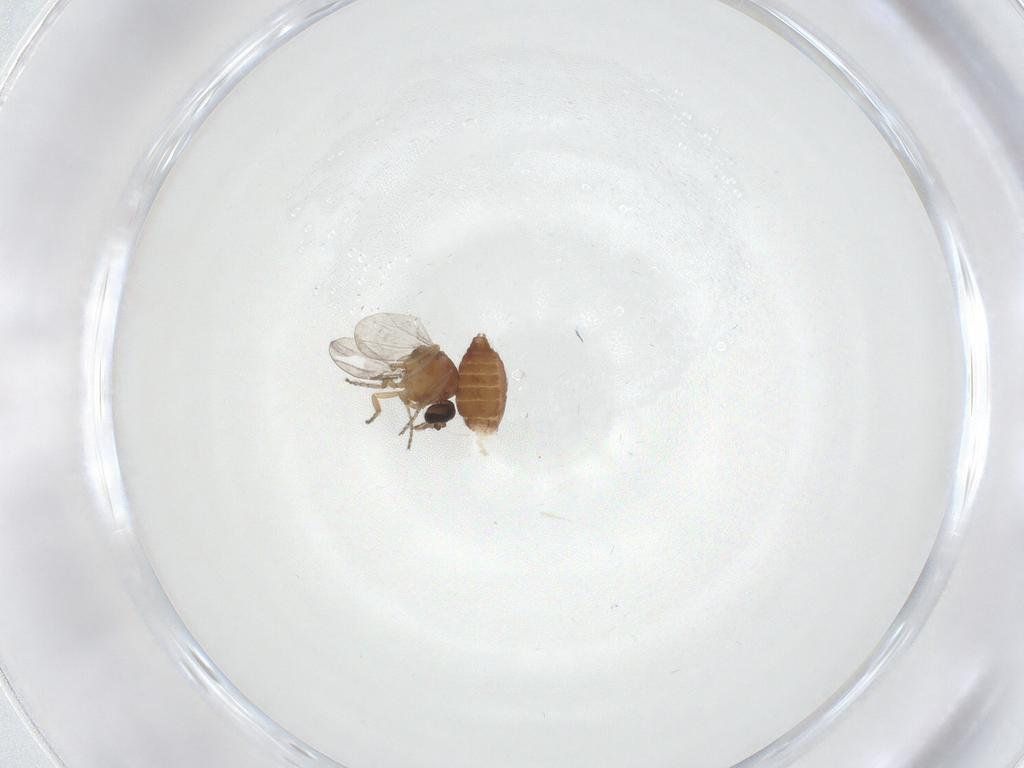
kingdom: Animalia
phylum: Arthropoda
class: Insecta
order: Diptera
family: Ceratopogonidae
